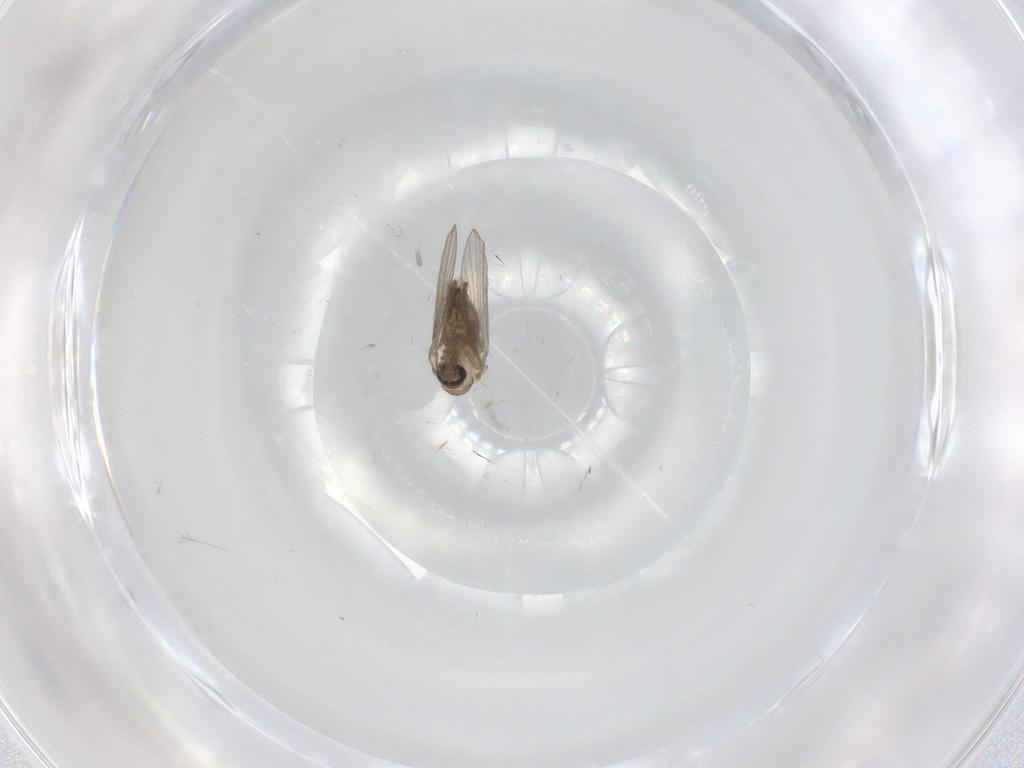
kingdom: Animalia
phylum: Arthropoda
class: Insecta
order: Diptera
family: Psychodidae
